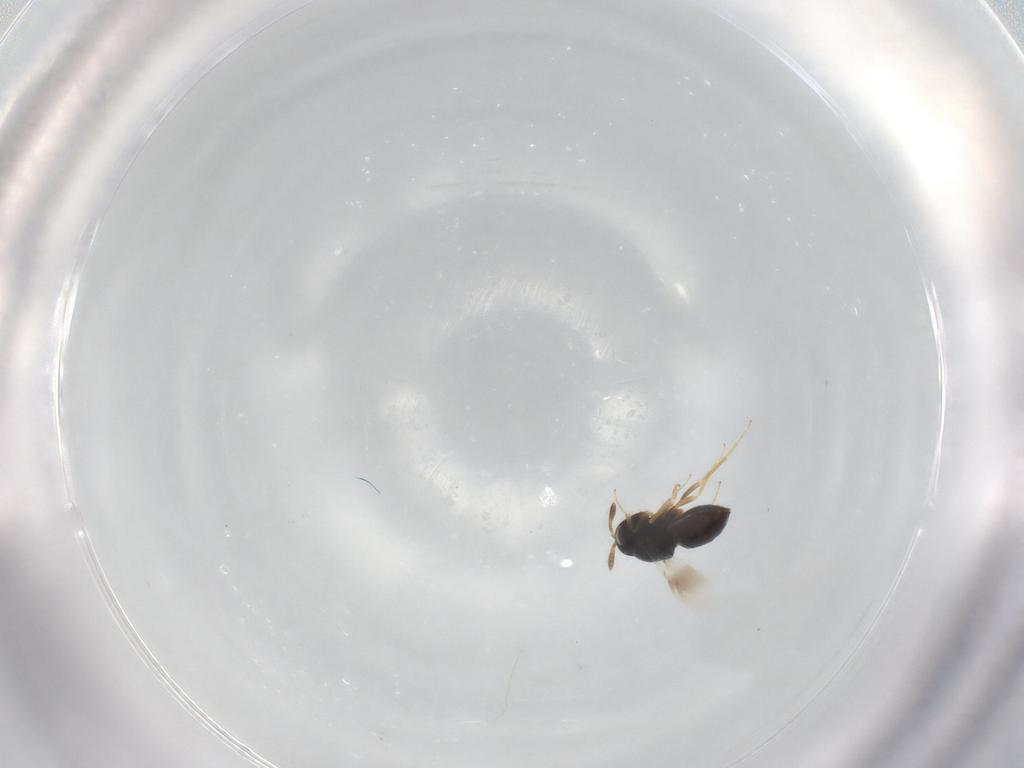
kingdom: Animalia
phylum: Arthropoda
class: Insecta
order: Hymenoptera
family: Scelionidae
